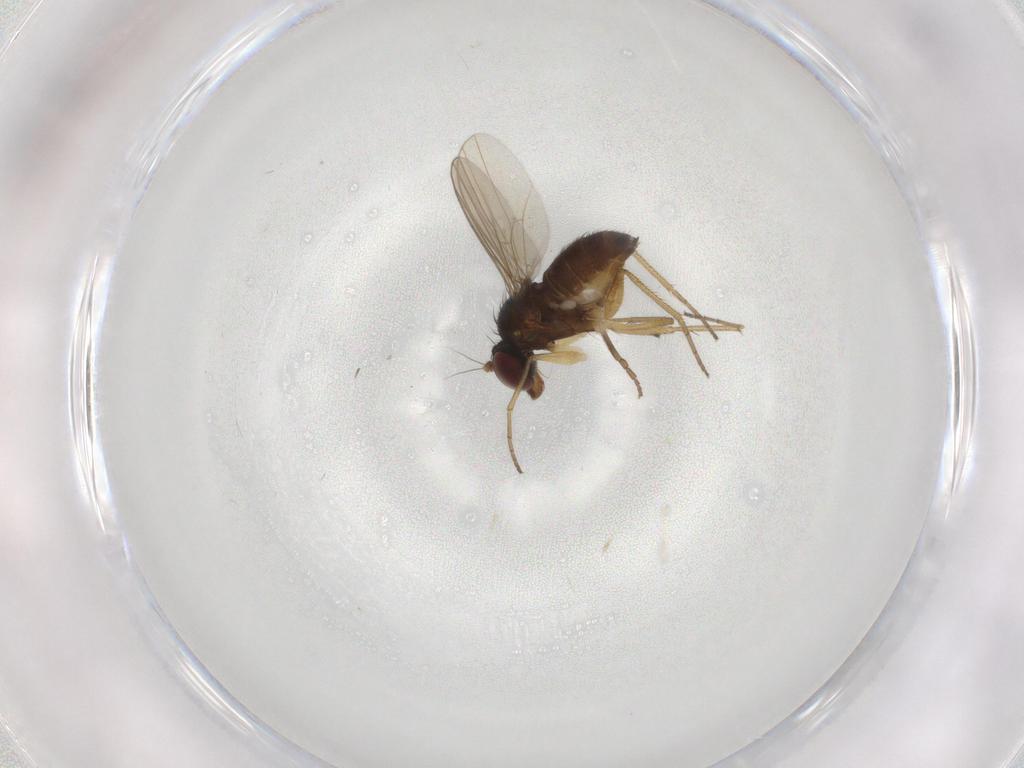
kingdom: Animalia
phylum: Arthropoda
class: Insecta
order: Diptera
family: Dolichopodidae
